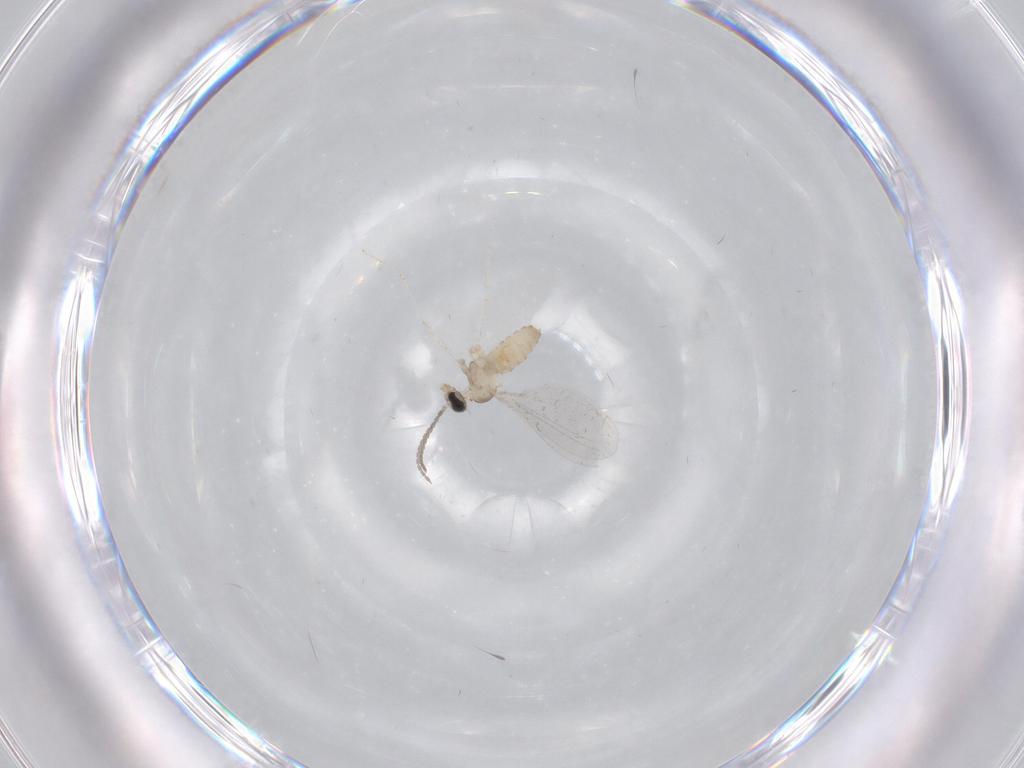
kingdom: Animalia
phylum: Arthropoda
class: Insecta
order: Diptera
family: Cecidomyiidae
